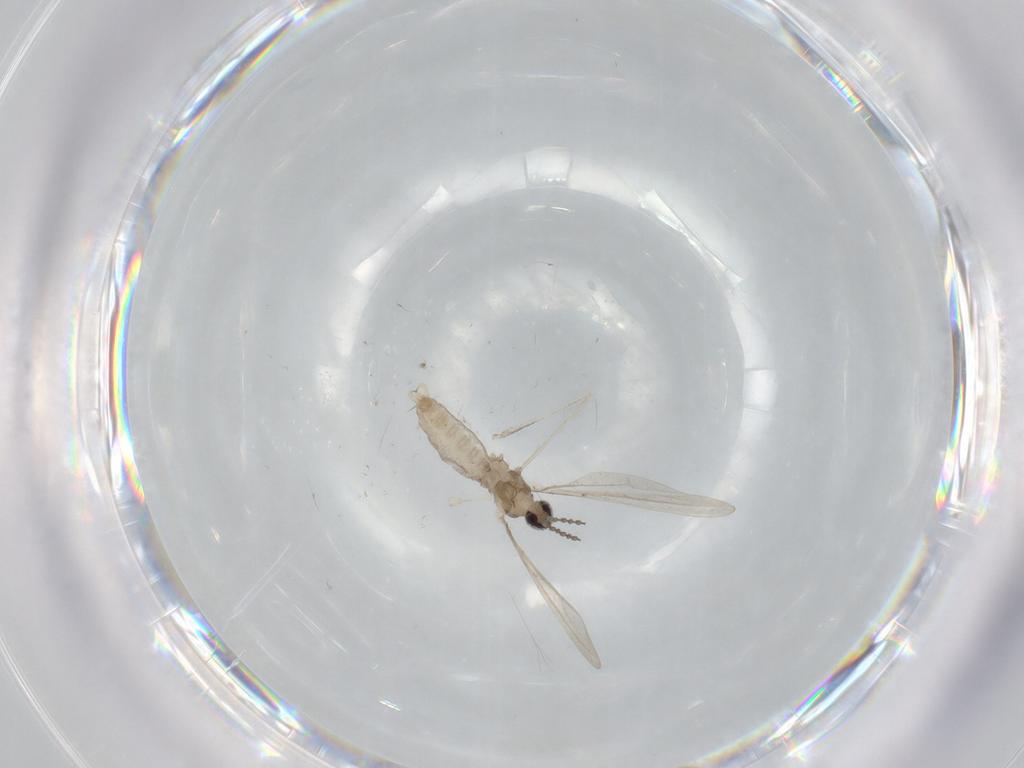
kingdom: Animalia
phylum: Arthropoda
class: Insecta
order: Diptera
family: Cecidomyiidae
